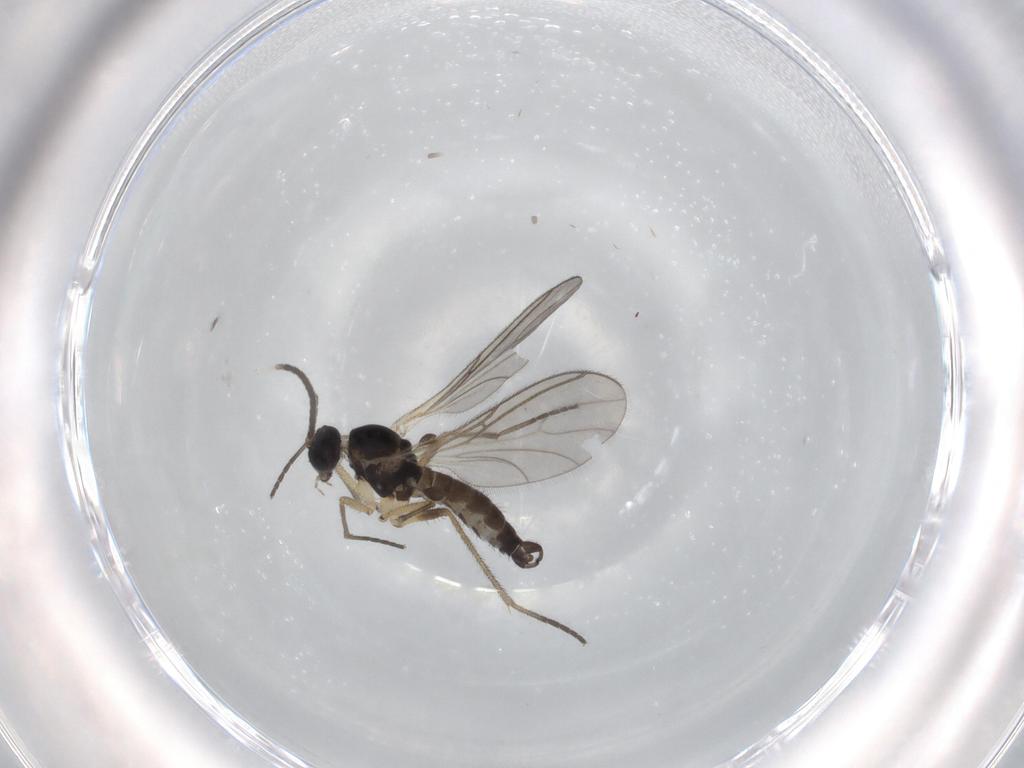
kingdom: Animalia
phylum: Arthropoda
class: Insecta
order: Diptera
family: Sciaridae
